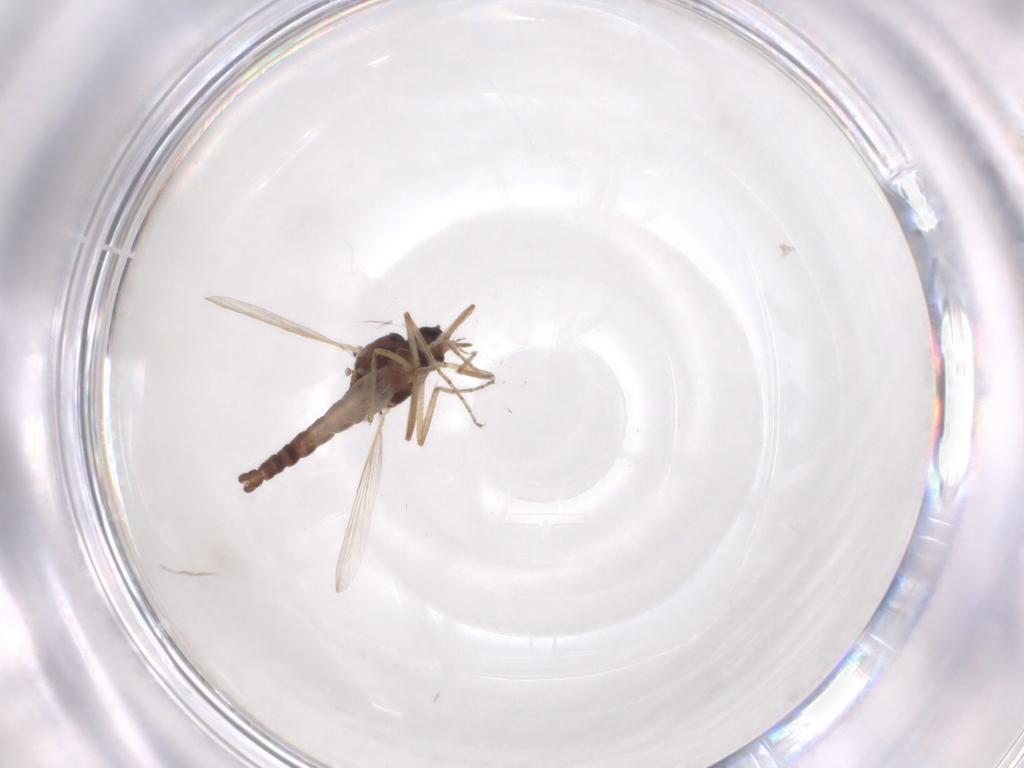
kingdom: Animalia
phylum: Arthropoda
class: Insecta
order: Diptera
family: Ceratopogonidae
